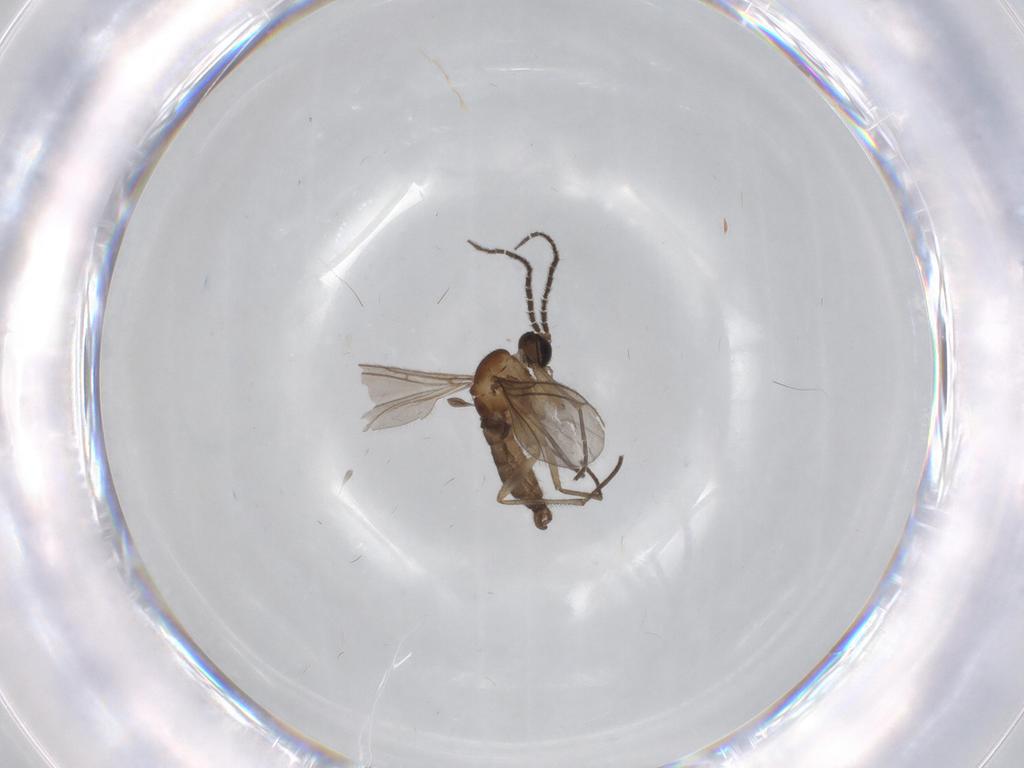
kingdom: Animalia
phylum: Arthropoda
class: Insecta
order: Diptera
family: Sciaridae
